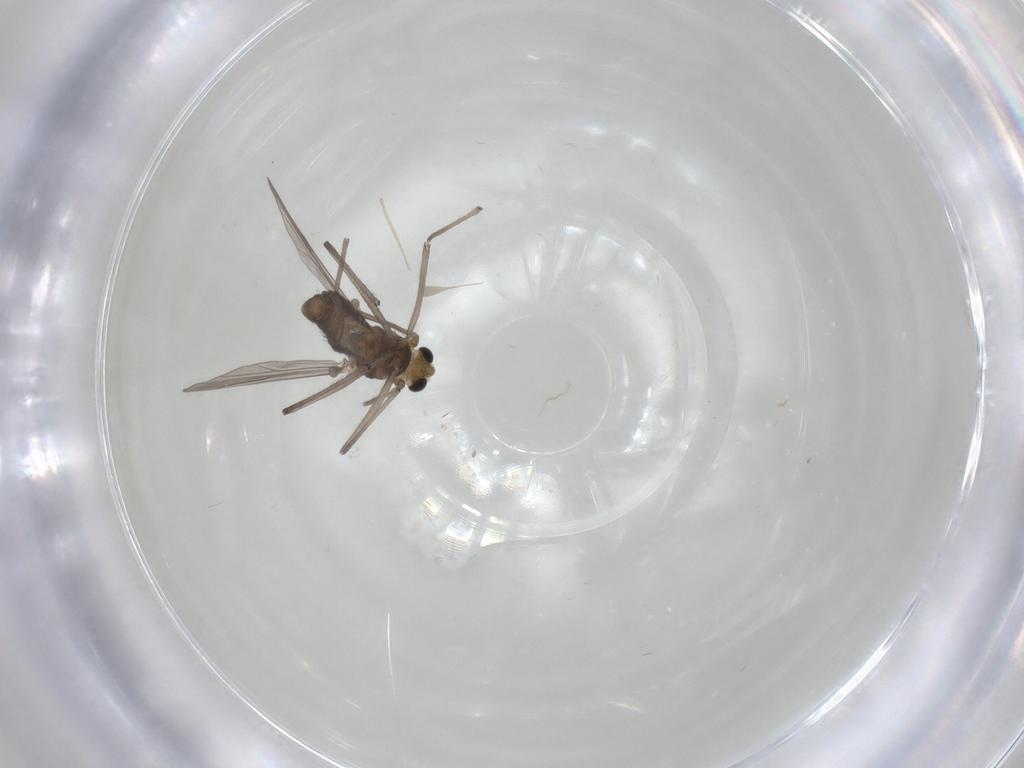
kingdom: Animalia
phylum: Arthropoda
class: Insecta
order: Diptera
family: Chironomidae
